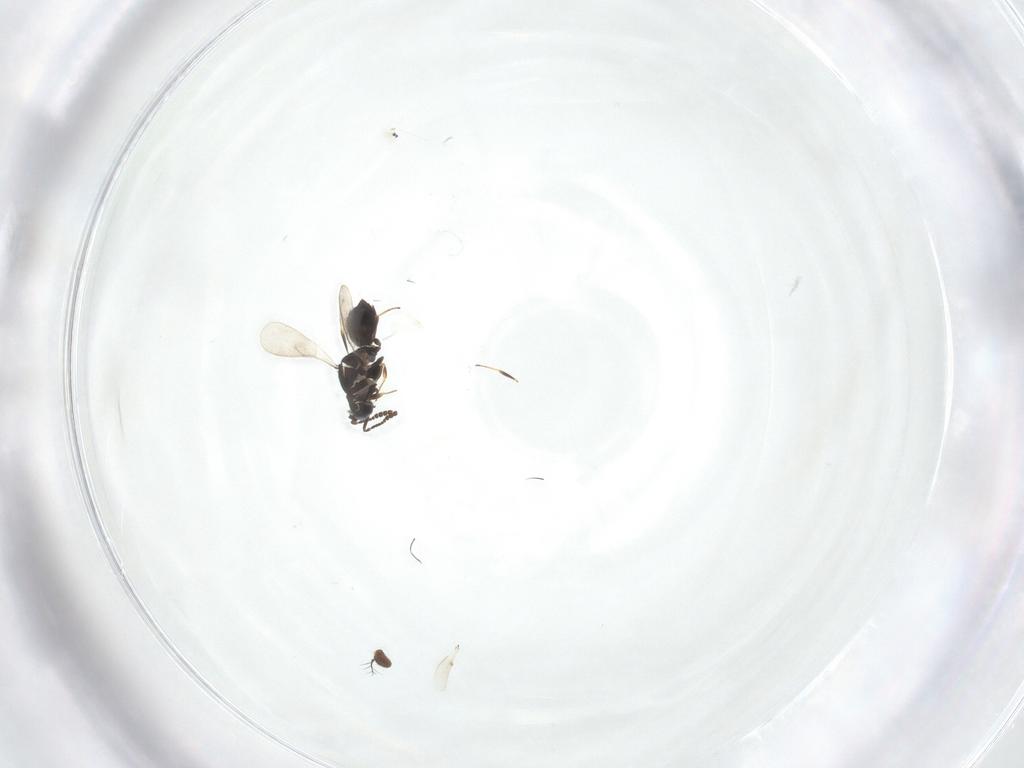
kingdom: Animalia
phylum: Arthropoda
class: Insecta
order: Hymenoptera
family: Scelionidae
